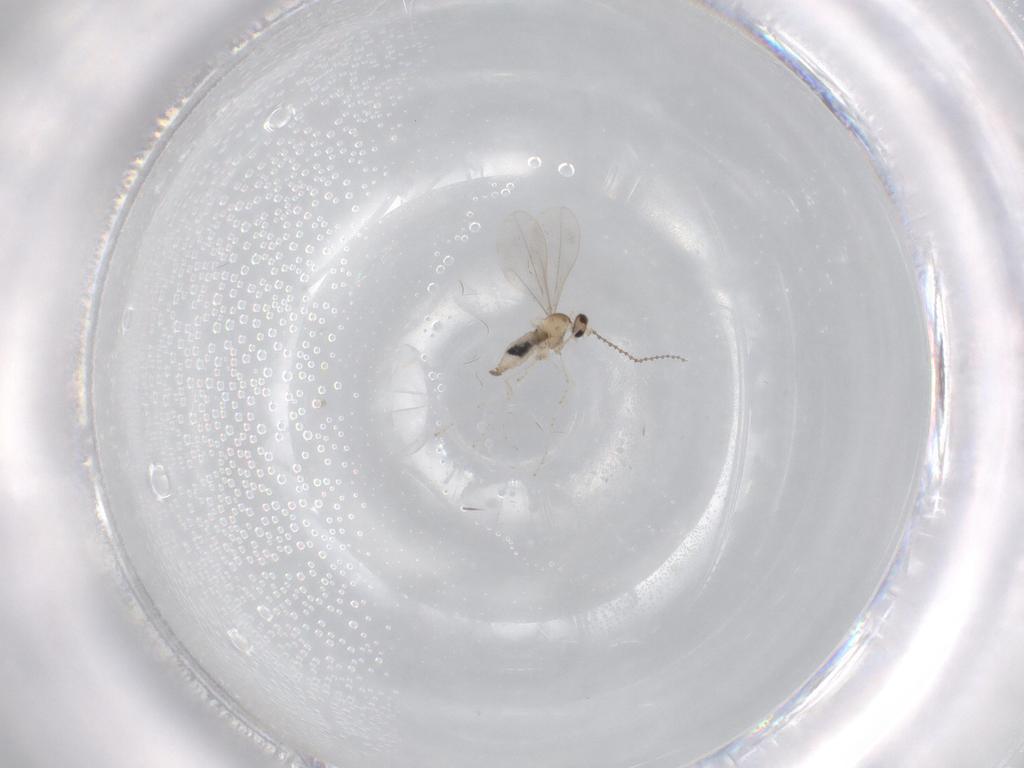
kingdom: Animalia
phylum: Arthropoda
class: Insecta
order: Diptera
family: Cecidomyiidae
